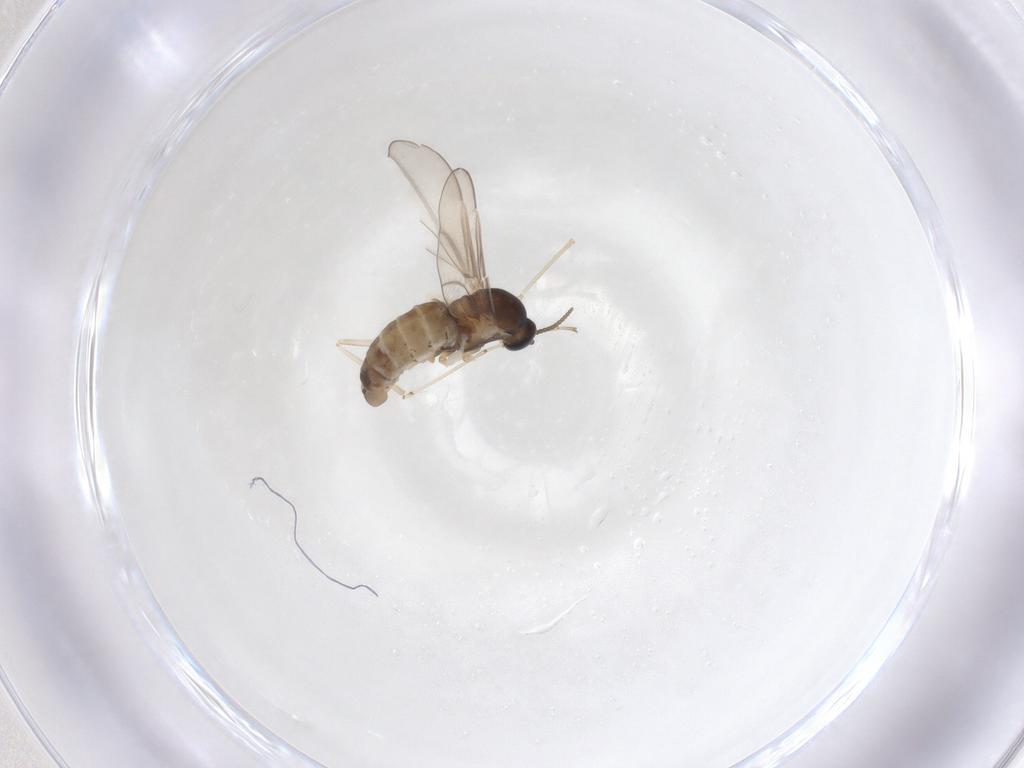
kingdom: Animalia
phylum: Arthropoda
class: Insecta
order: Diptera
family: Cecidomyiidae
